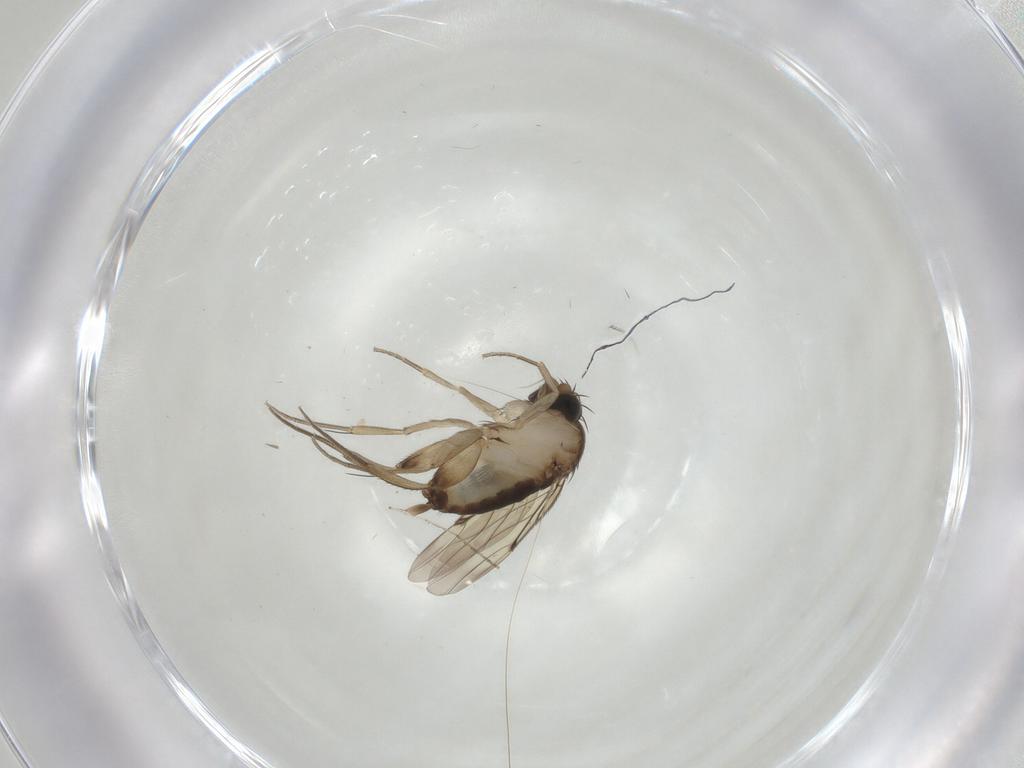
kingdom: Animalia
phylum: Arthropoda
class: Insecta
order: Diptera
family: Phoridae
